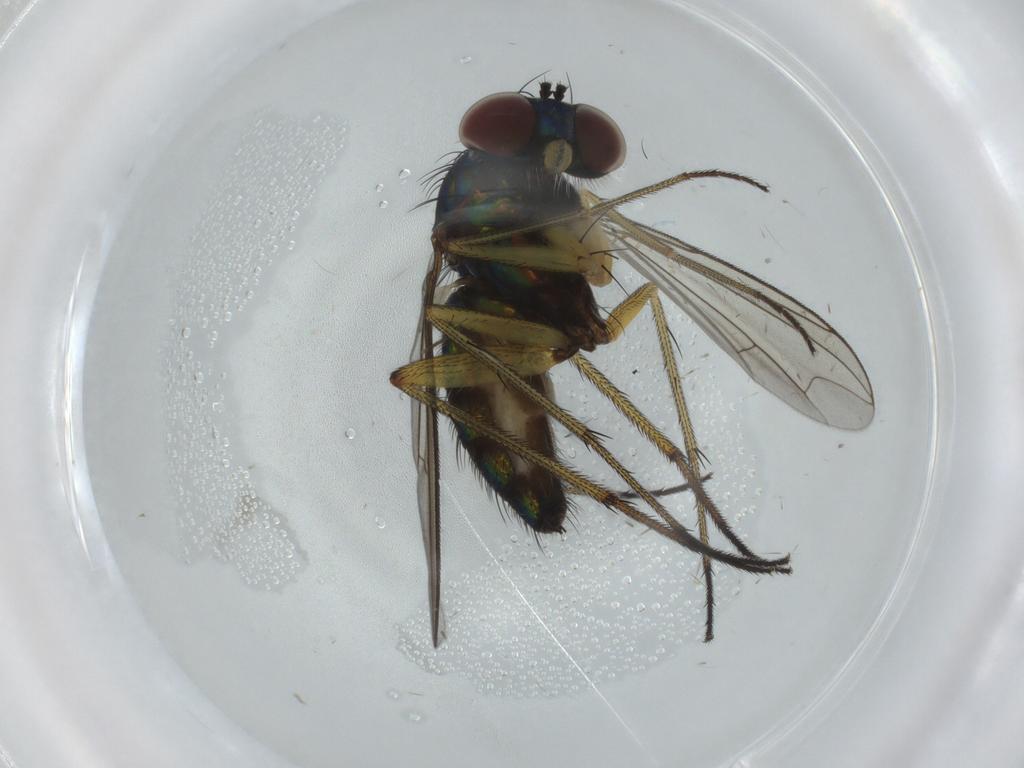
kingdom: Animalia
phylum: Arthropoda
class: Insecta
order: Diptera
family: Dolichopodidae
